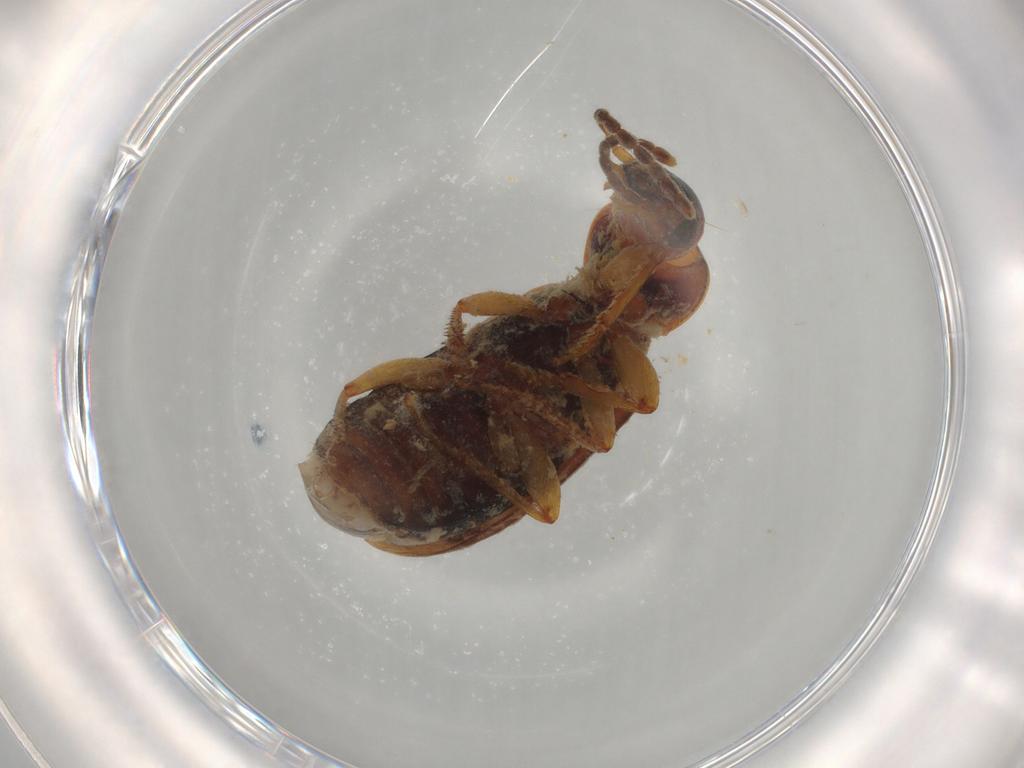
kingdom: Animalia
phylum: Arthropoda
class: Insecta
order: Coleoptera
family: Carabidae
